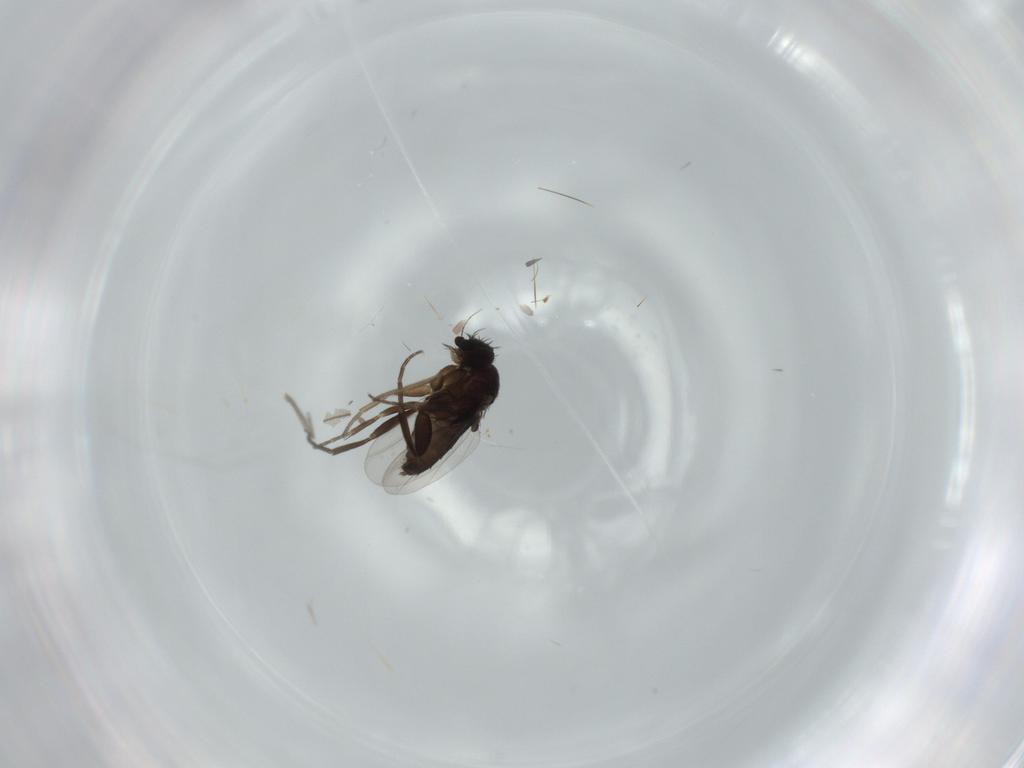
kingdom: Animalia
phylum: Arthropoda
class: Insecta
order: Diptera
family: Phoridae
